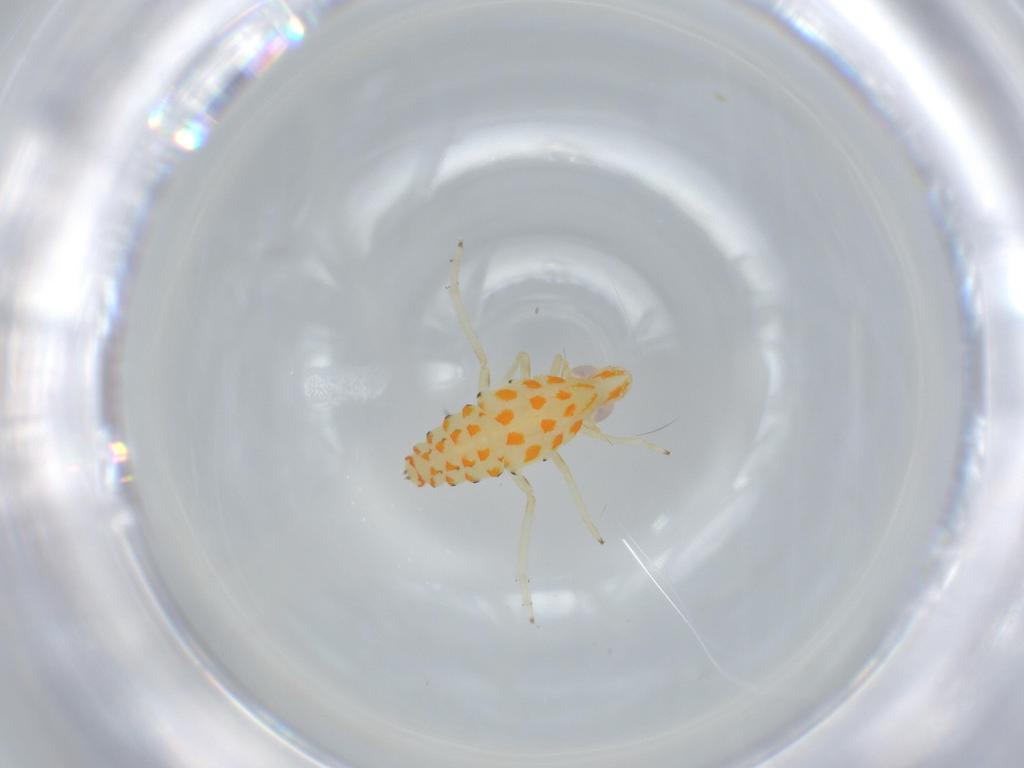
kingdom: Animalia
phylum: Arthropoda
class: Insecta
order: Hemiptera
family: Tropiduchidae
